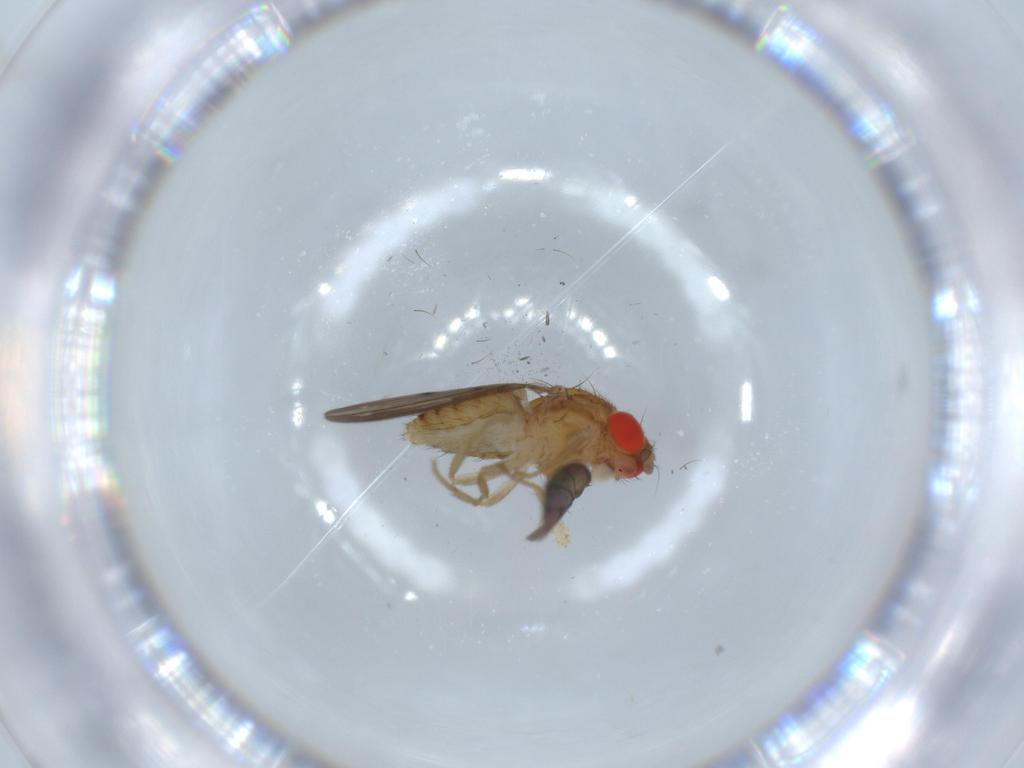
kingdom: Animalia
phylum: Arthropoda
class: Insecta
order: Diptera
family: Drosophilidae
